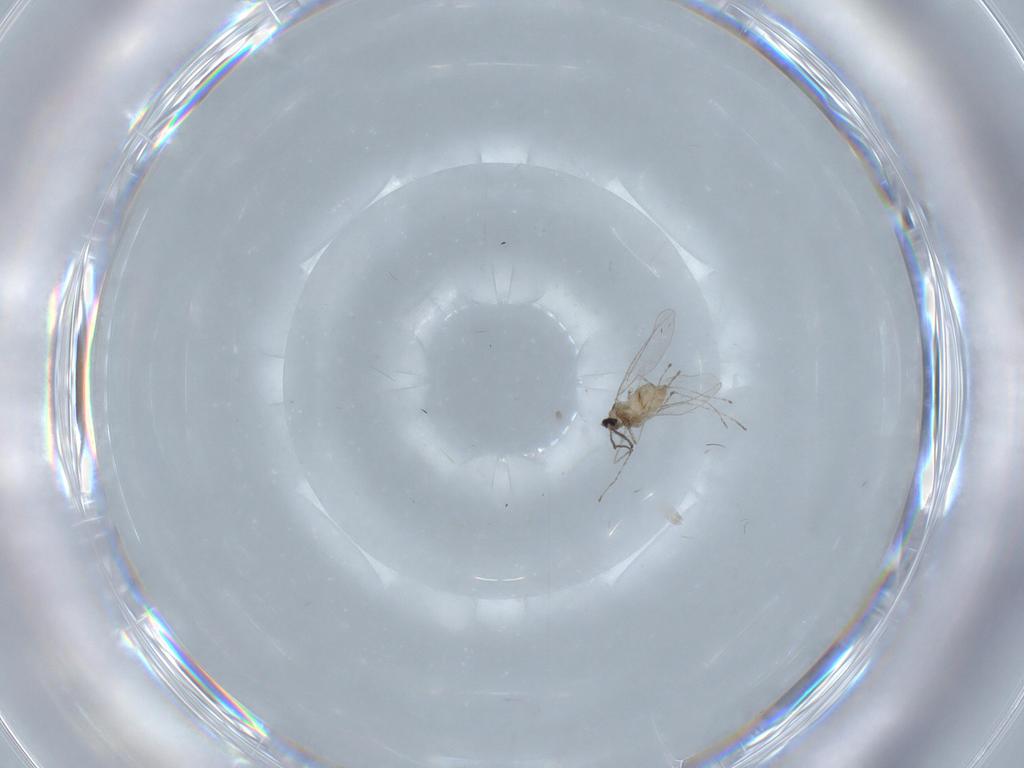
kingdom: Animalia
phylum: Arthropoda
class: Insecta
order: Diptera
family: Cecidomyiidae
